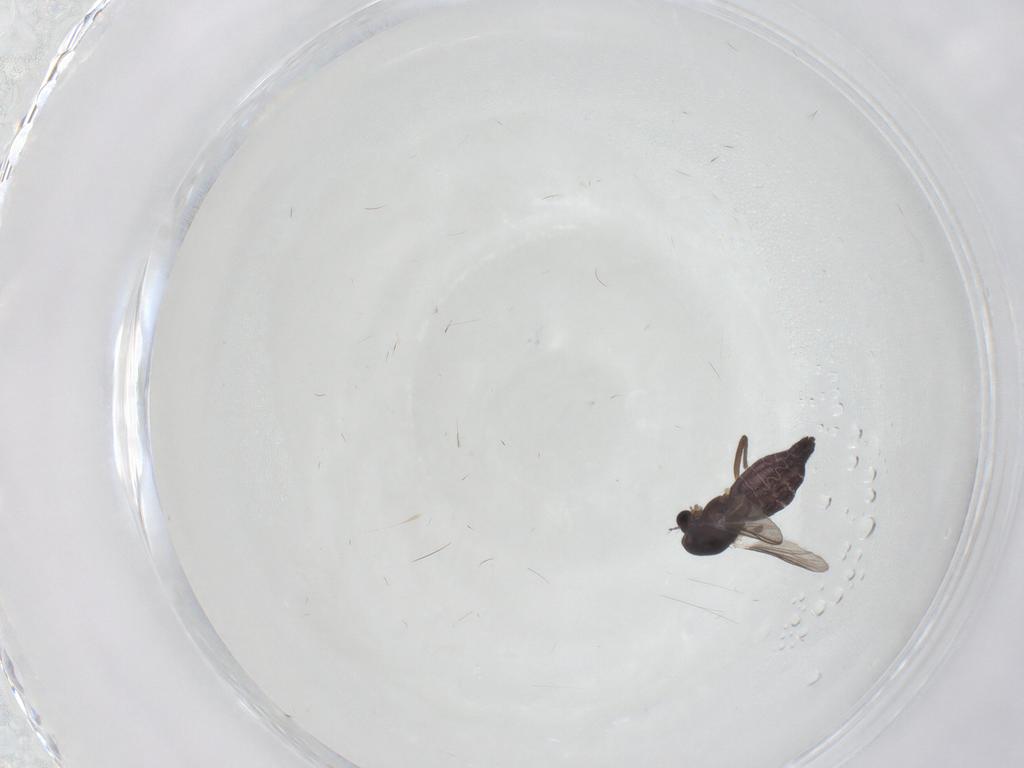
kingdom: Animalia
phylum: Arthropoda
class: Insecta
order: Diptera
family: Chironomidae
